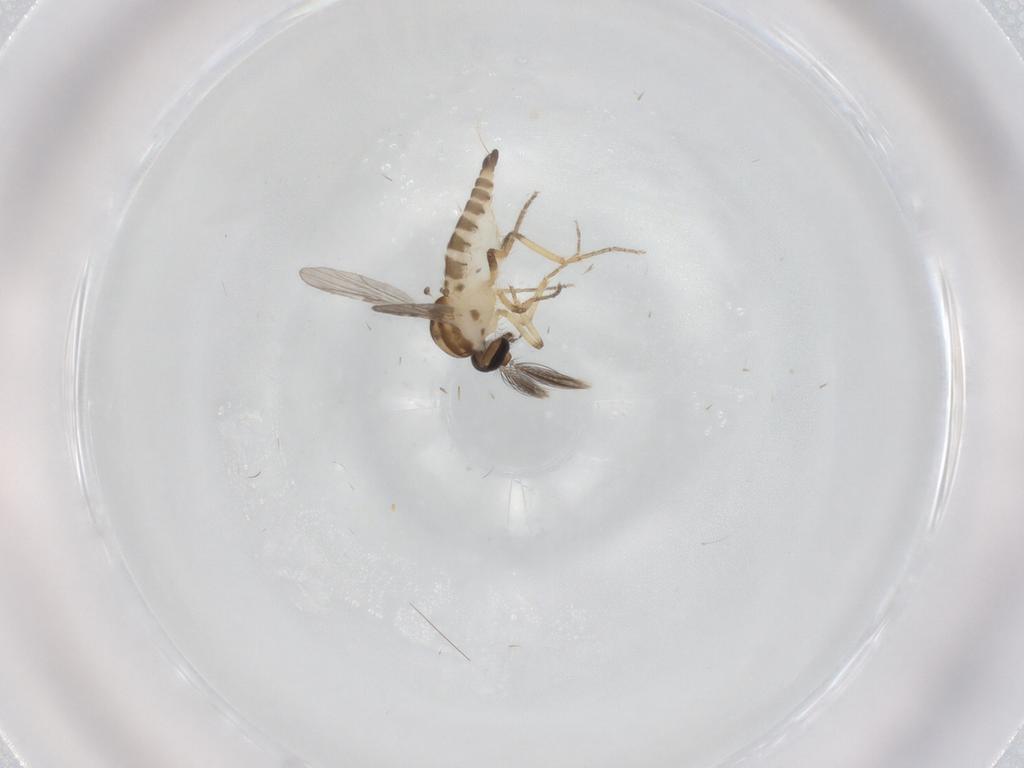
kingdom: Animalia
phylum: Arthropoda
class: Insecta
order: Diptera
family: Ceratopogonidae
